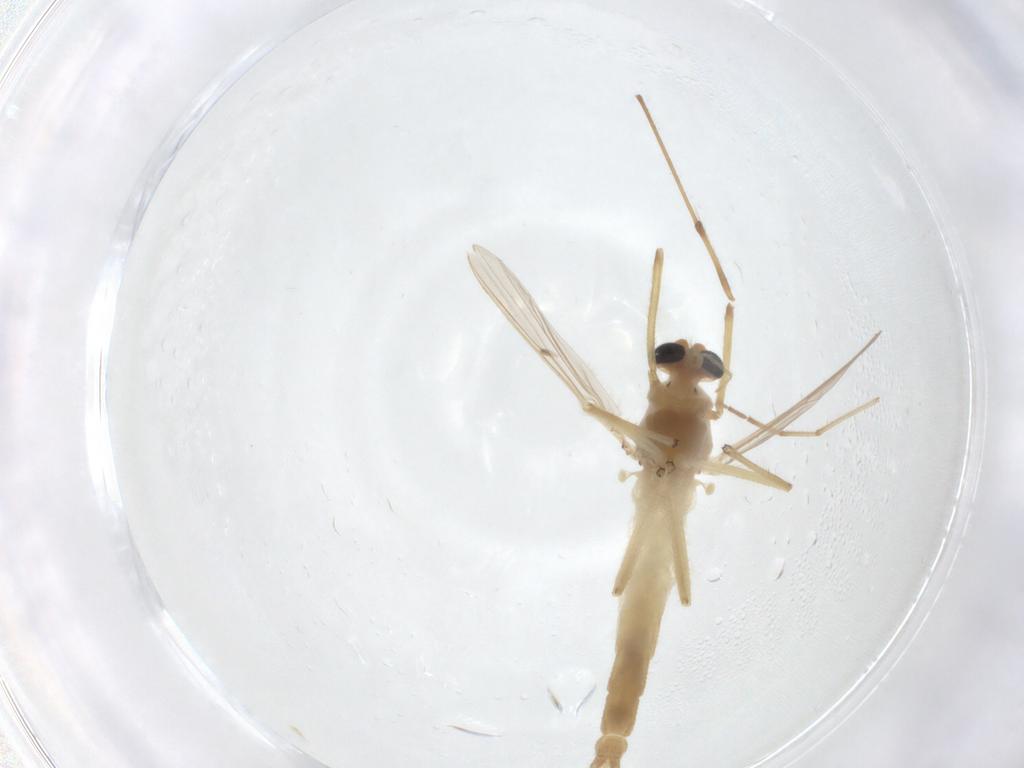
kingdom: Animalia
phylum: Arthropoda
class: Insecta
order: Diptera
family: Chironomidae
